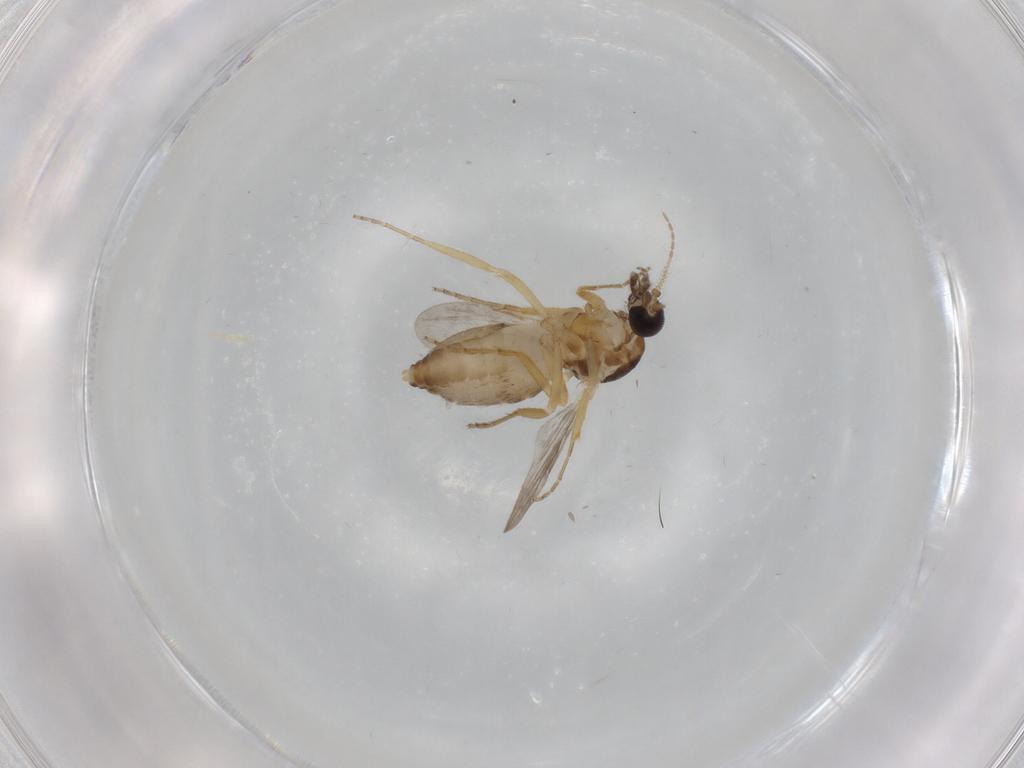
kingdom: Animalia
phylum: Arthropoda
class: Insecta
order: Diptera
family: Ceratopogonidae
